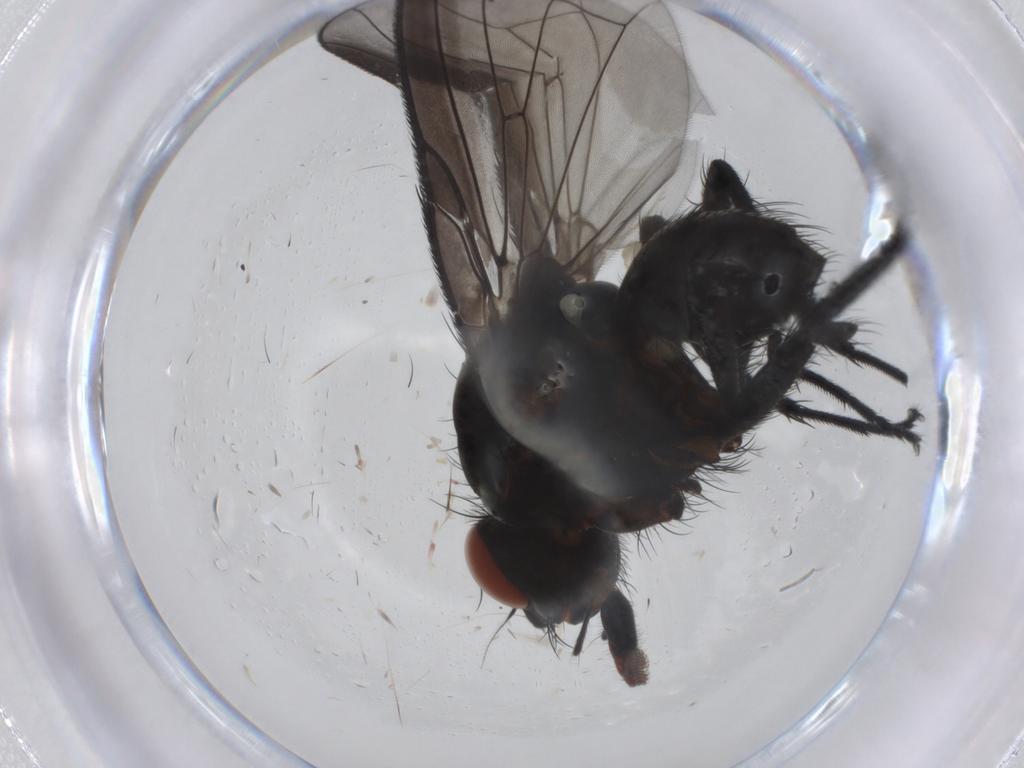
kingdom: Animalia
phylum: Arthropoda
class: Insecta
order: Diptera
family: Anthomyiidae
